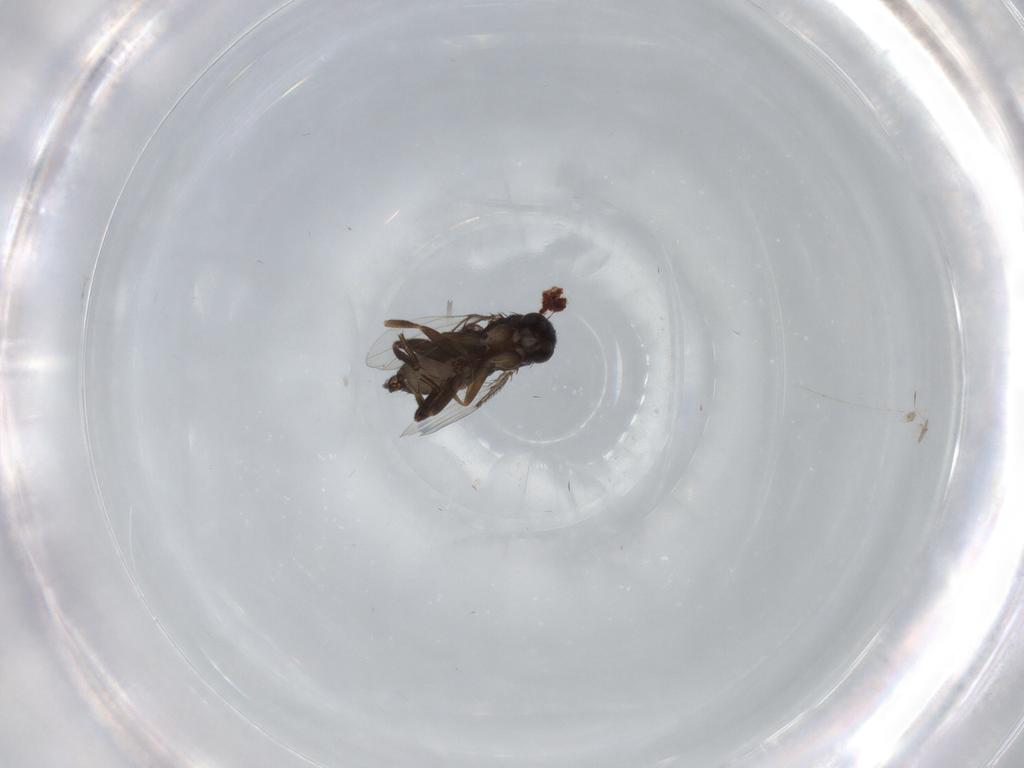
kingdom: Animalia
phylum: Arthropoda
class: Insecta
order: Diptera
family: Phoridae
